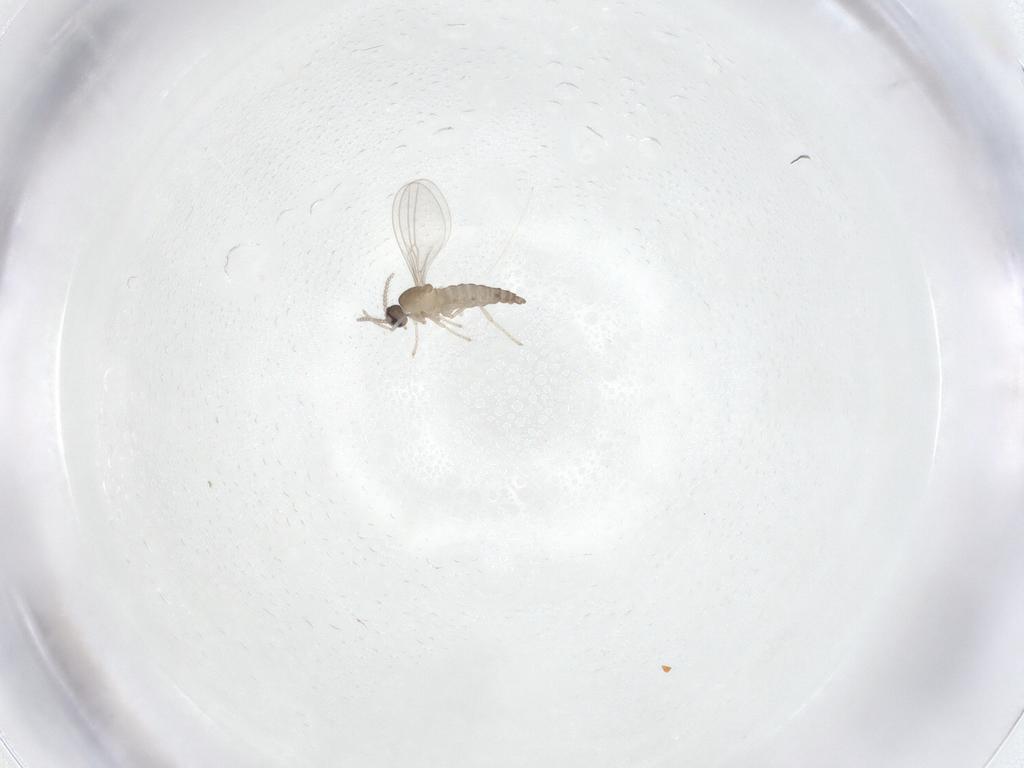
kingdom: Animalia
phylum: Arthropoda
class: Insecta
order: Diptera
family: Cecidomyiidae
